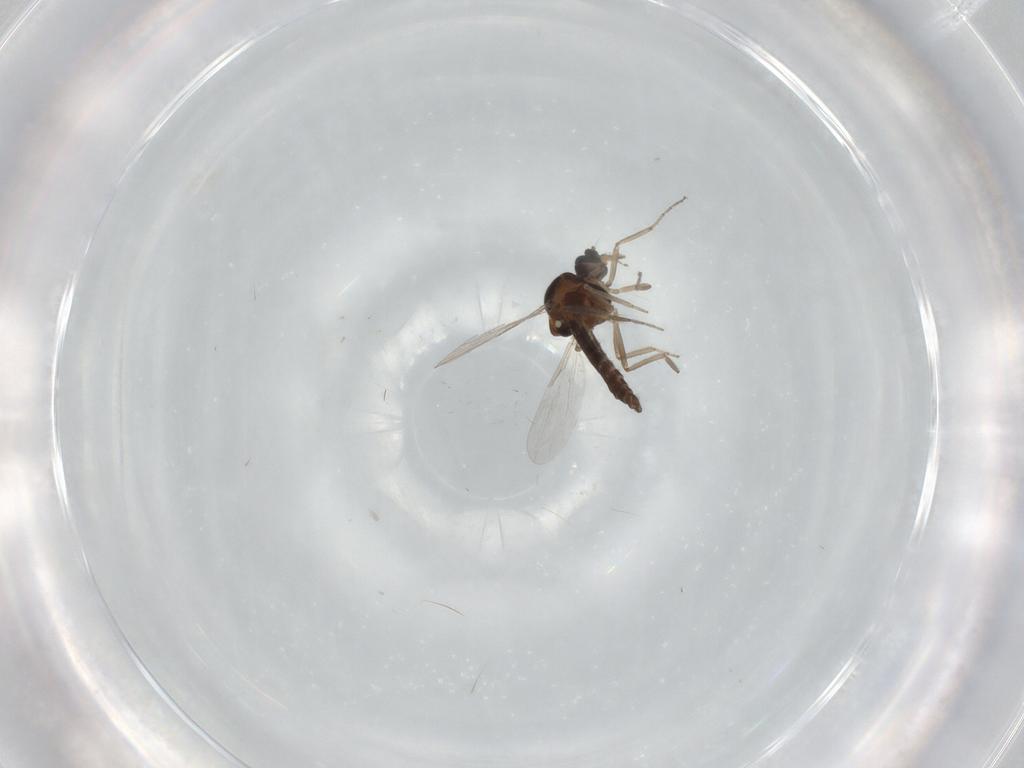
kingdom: Animalia
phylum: Arthropoda
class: Insecta
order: Diptera
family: Ceratopogonidae
